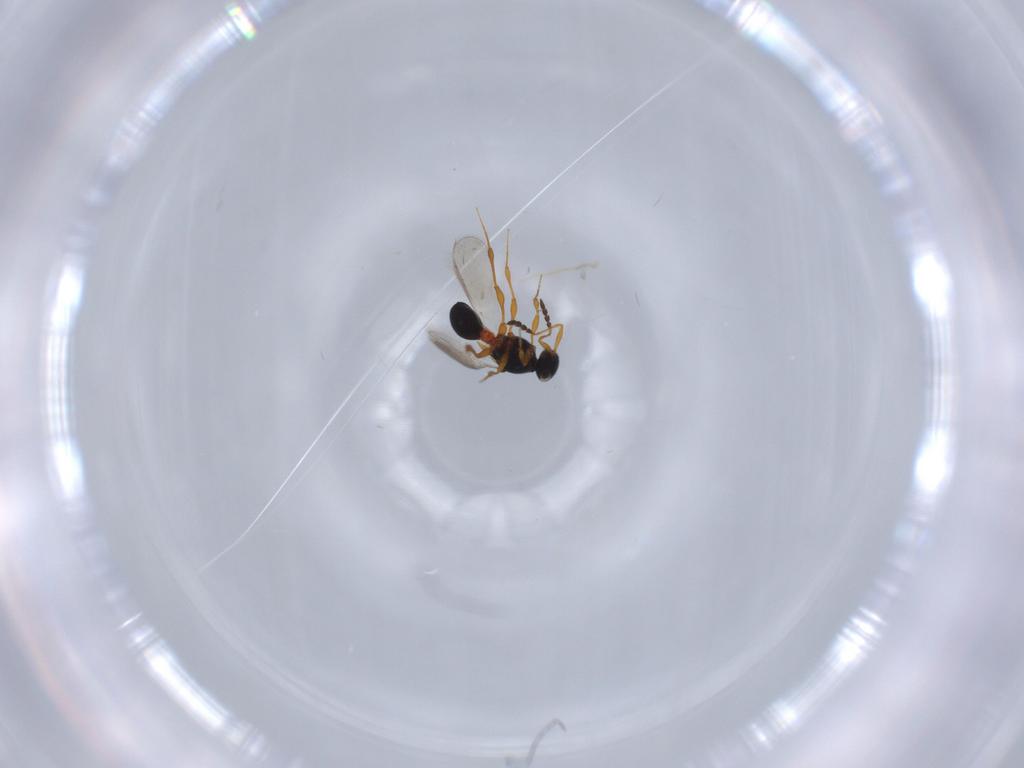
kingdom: Animalia
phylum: Arthropoda
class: Insecta
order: Hymenoptera
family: Platygastridae
